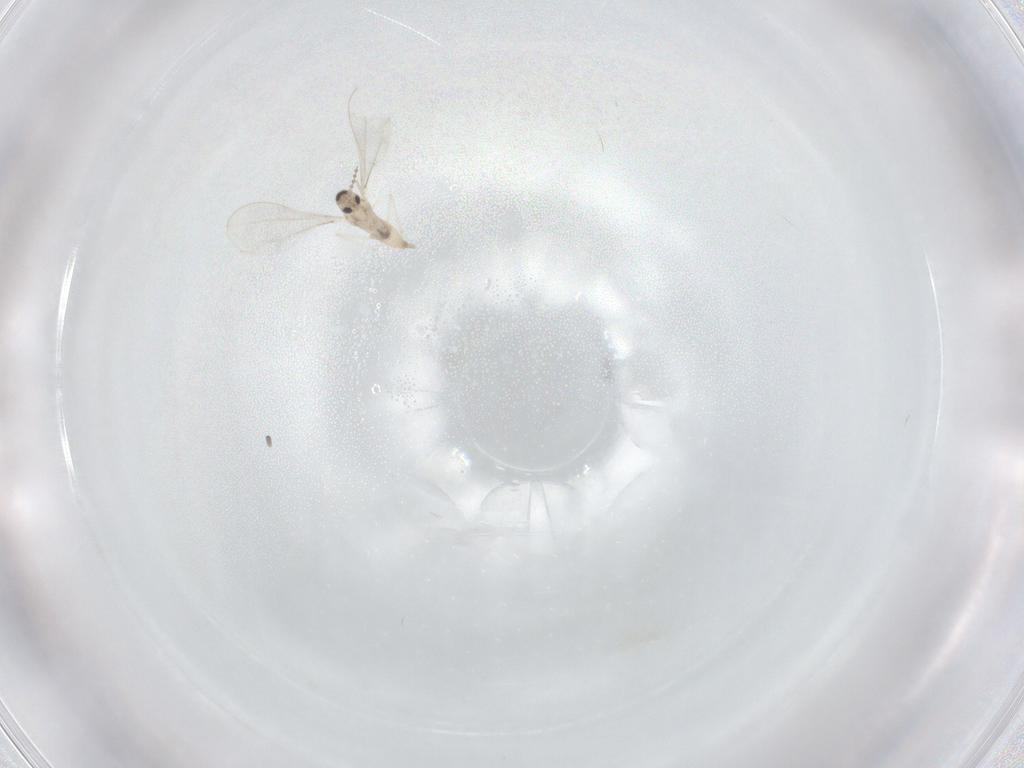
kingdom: Animalia
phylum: Arthropoda
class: Insecta
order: Diptera
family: Cecidomyiidae
